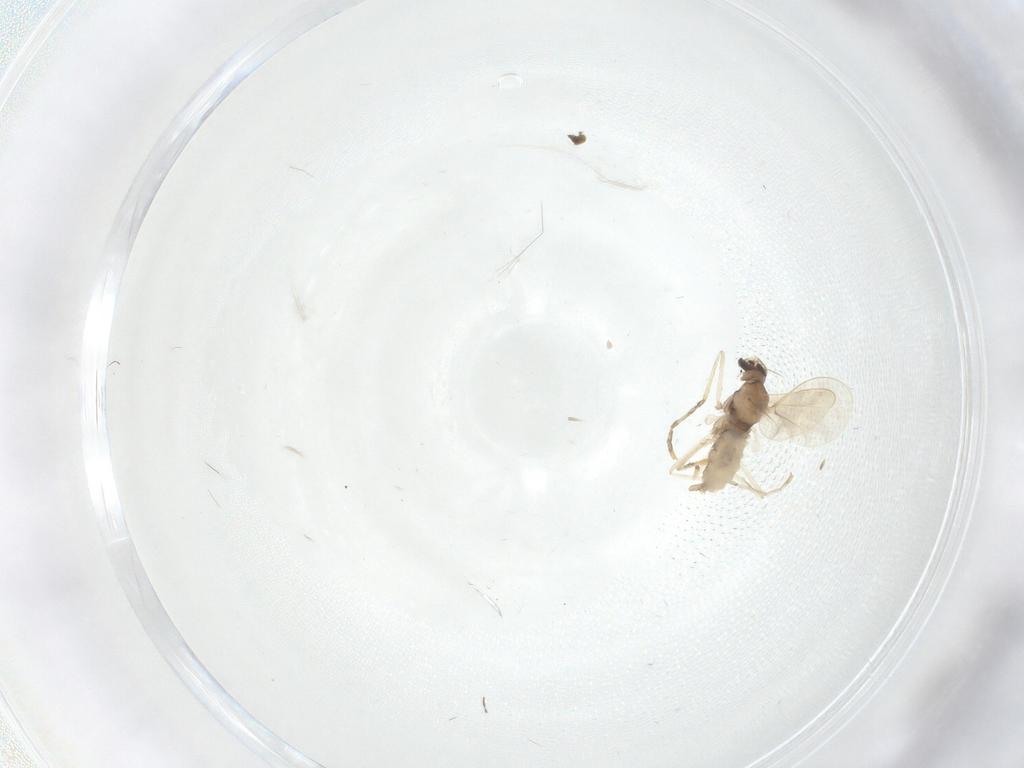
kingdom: Animalia
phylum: Arthropoda
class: Insecta
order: Diptera
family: Cecidomyiidae
